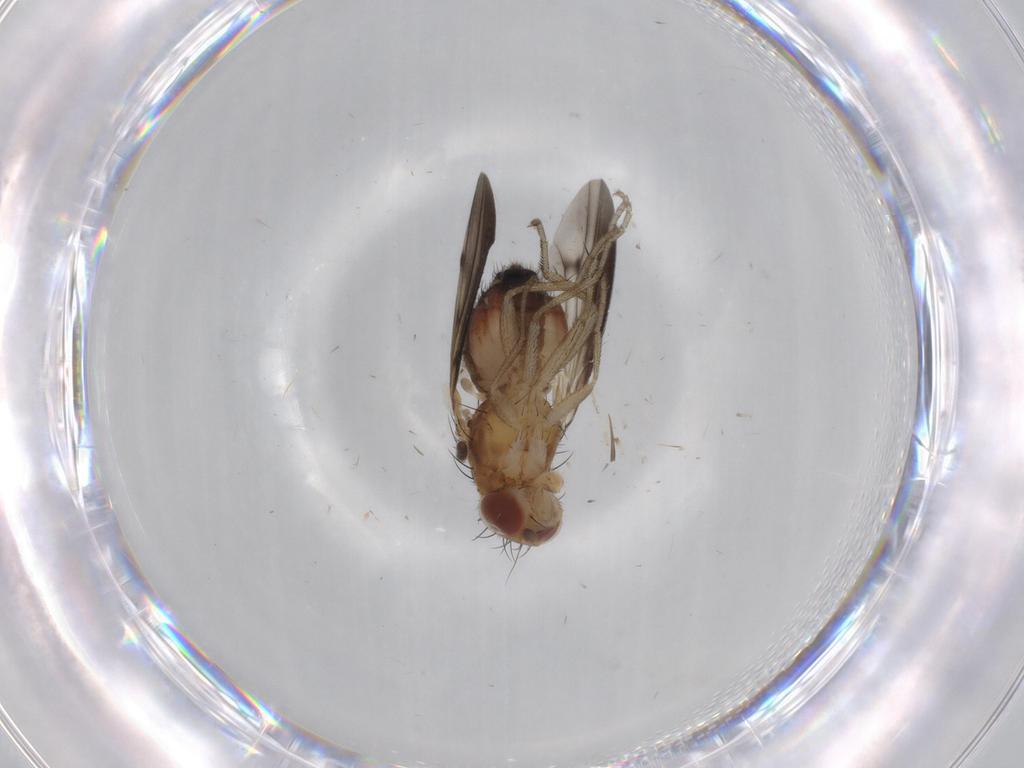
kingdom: Animalia
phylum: Arthropoda
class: Insecta
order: Diptera
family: Heleomyzidae
